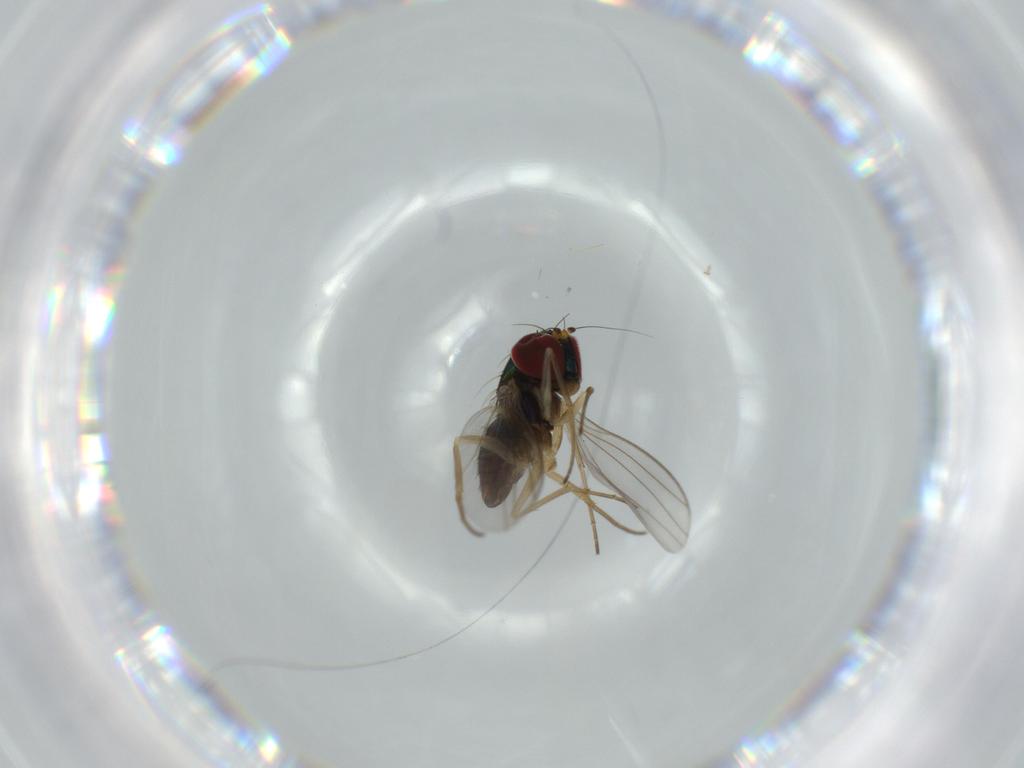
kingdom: Animalia
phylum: Arthropoda
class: Insecta
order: Diptera
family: Dolichopodidae
